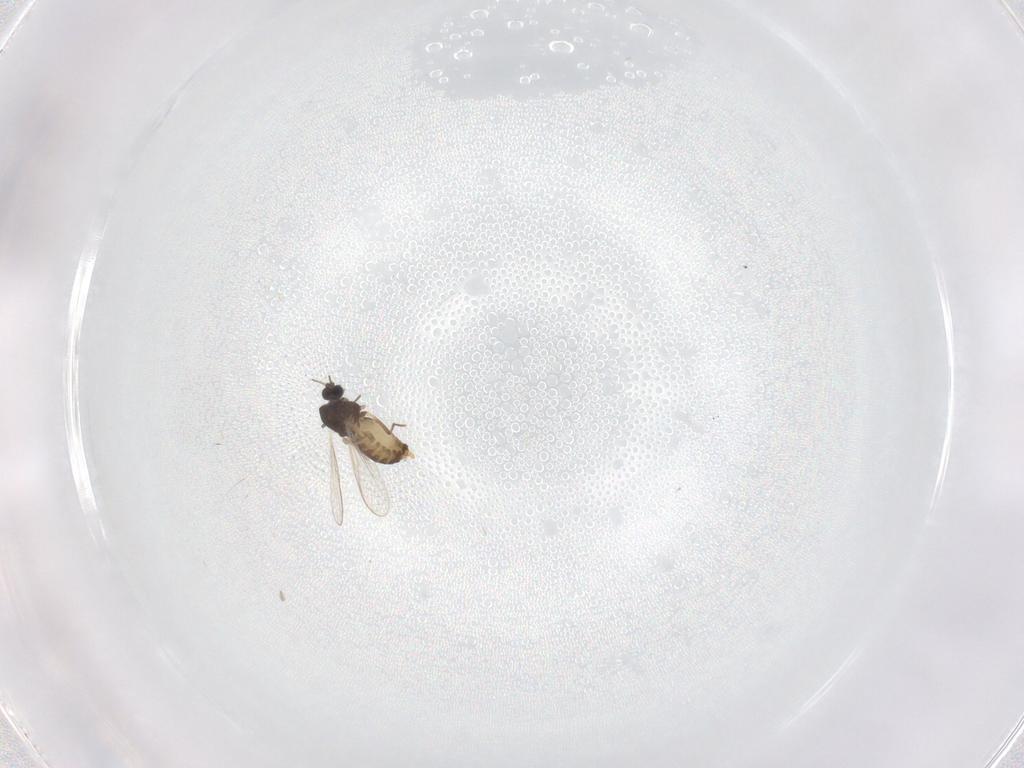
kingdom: Animalia
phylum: Arthropoda
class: Insecta
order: Diptera
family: Chironomidae
